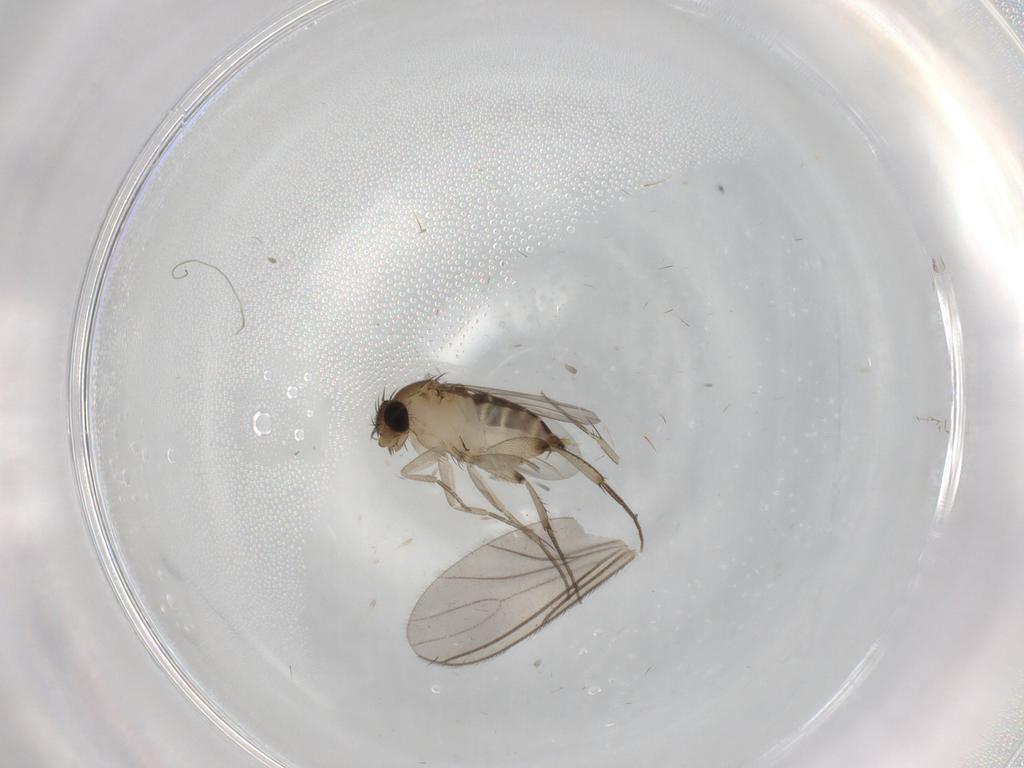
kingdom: Animalia
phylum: Arthropoda
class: Insecta
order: Diptera
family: Phoridae
